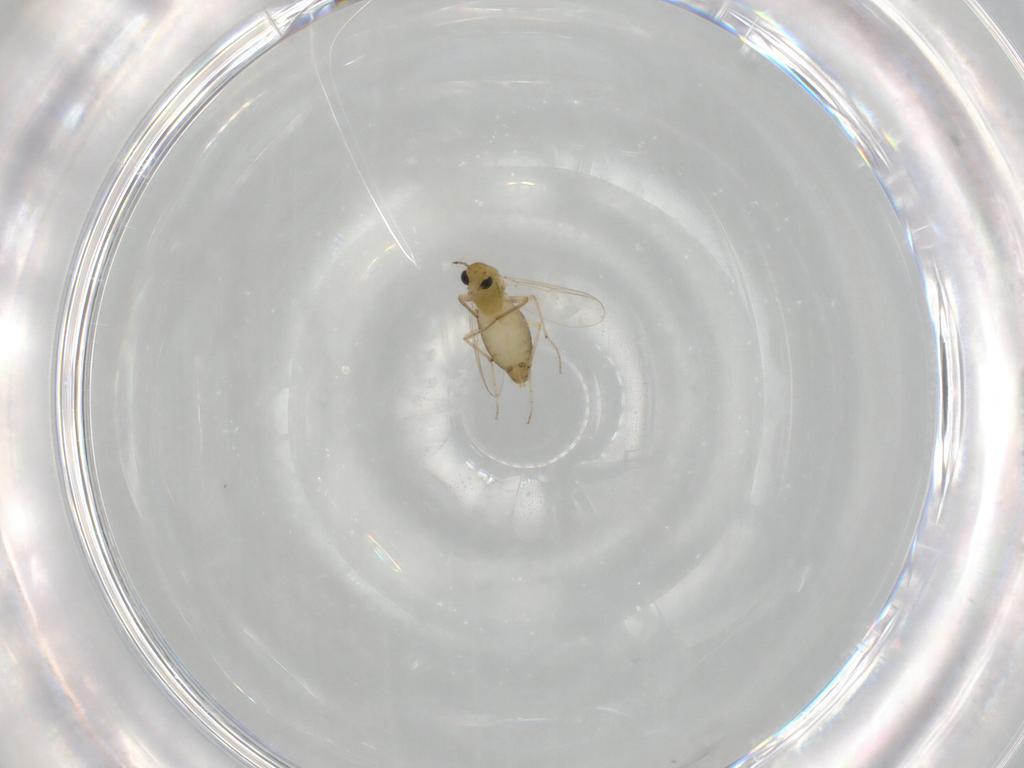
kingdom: Animalia
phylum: Arthropoda
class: Insecta
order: Diptera
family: Chironomidae
